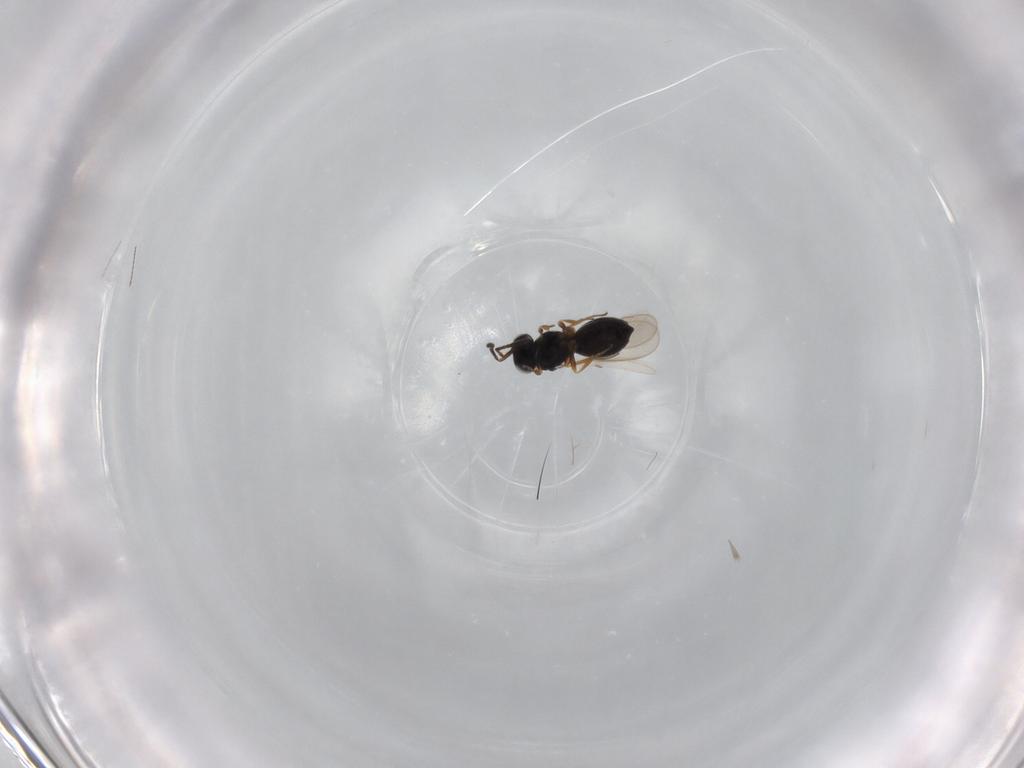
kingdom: Animalia
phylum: Arthropoda
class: Insecta
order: Hymenoptera
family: Scelionidae
